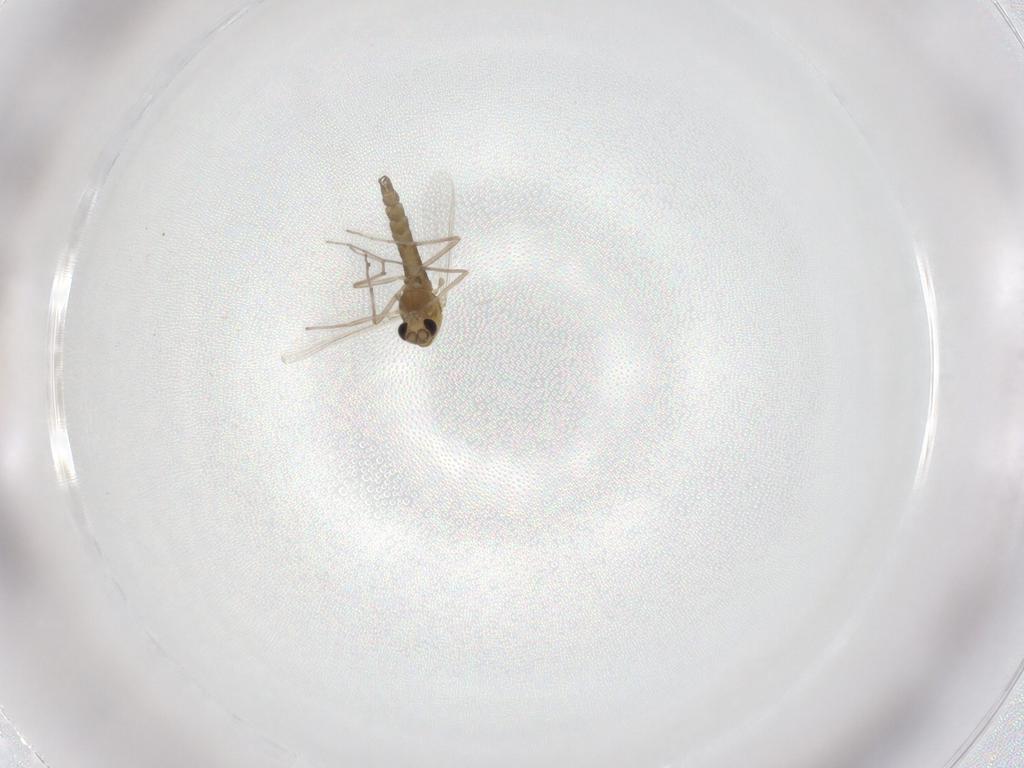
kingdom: Animalia
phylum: Arthropoda
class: Insecta
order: Diptera
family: Chironomidae
